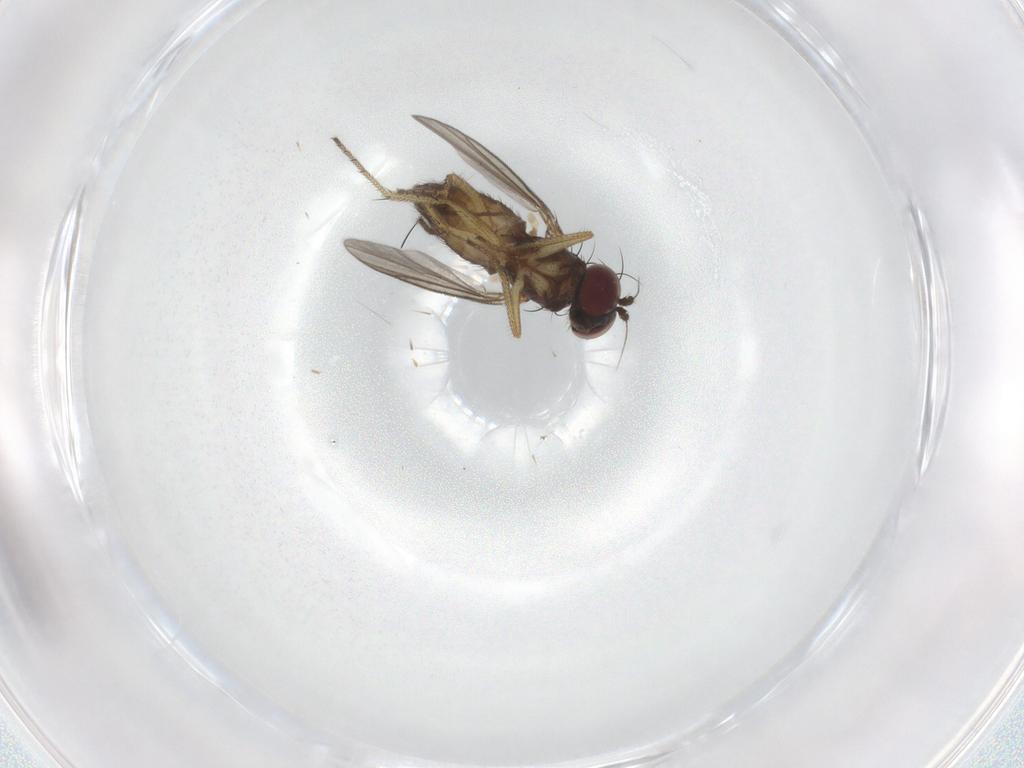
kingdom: Animalia
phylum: Arthropoda
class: Insecta
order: Diptera
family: Dolichopodidae
